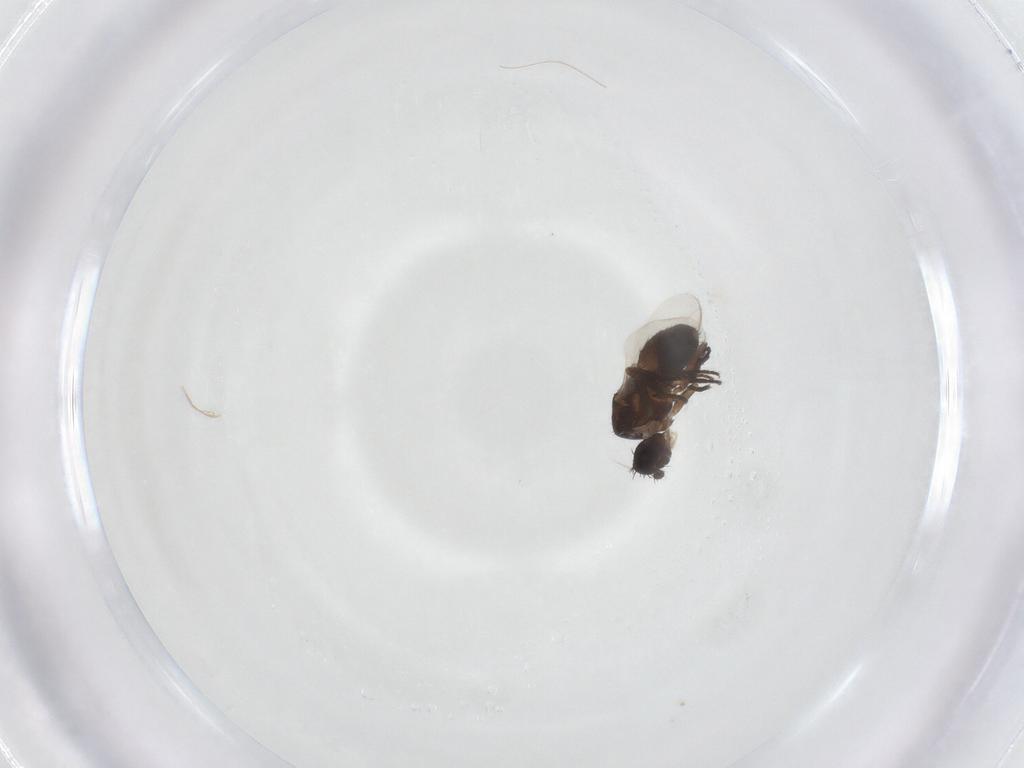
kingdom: Animalia
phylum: Arthropoda
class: Insecta
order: Diptera
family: Sphaeroceridae
